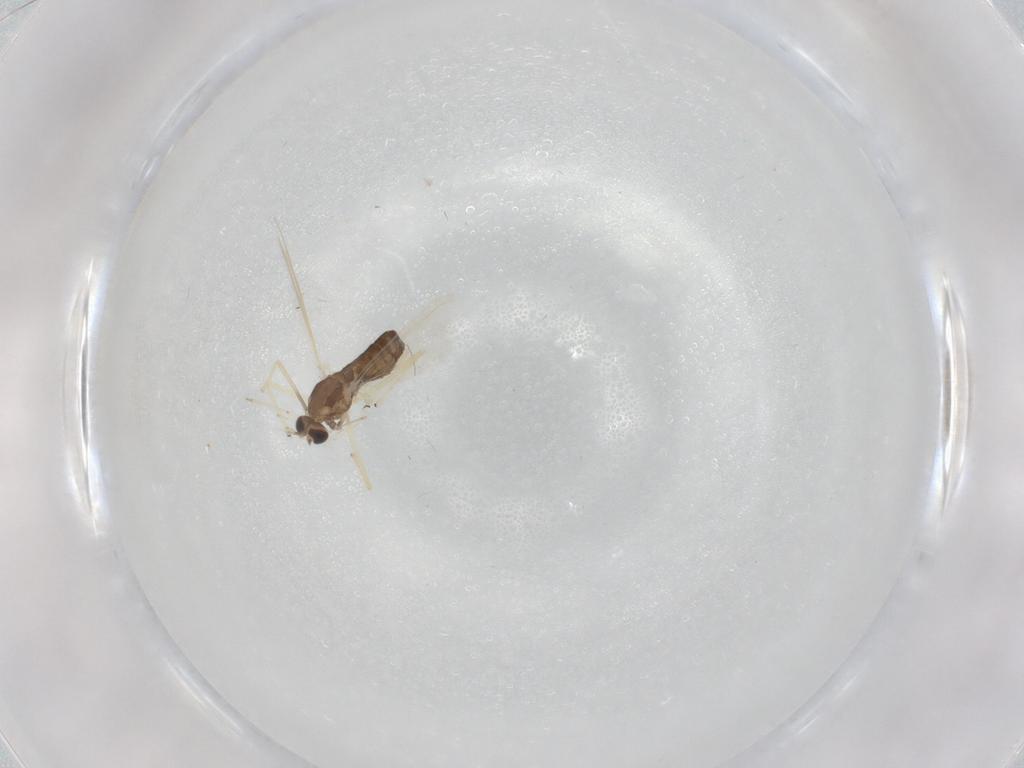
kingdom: Animalia
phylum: Arthropoda
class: Insecta
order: Diptera
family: Chironomidae
